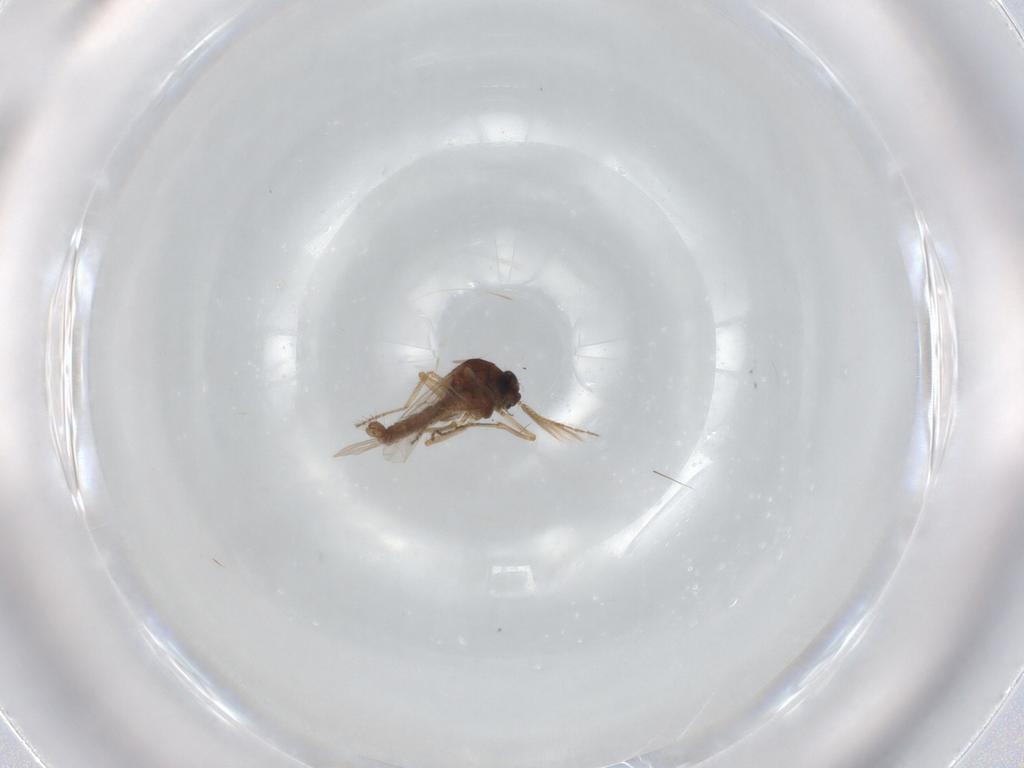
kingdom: Animalia
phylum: Arthropoda
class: Insecta
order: Diptera
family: Ceratopogonidae
